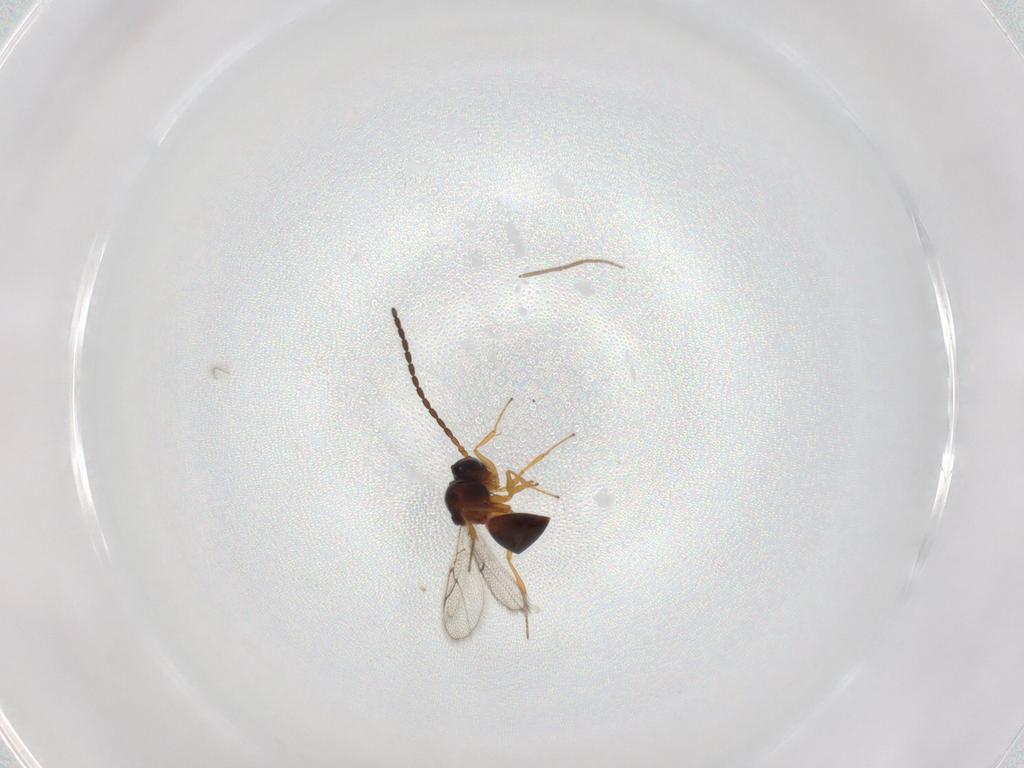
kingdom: Animalia
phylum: Arthropoda
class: Insecta
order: Hymenoptera
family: Figitidae
